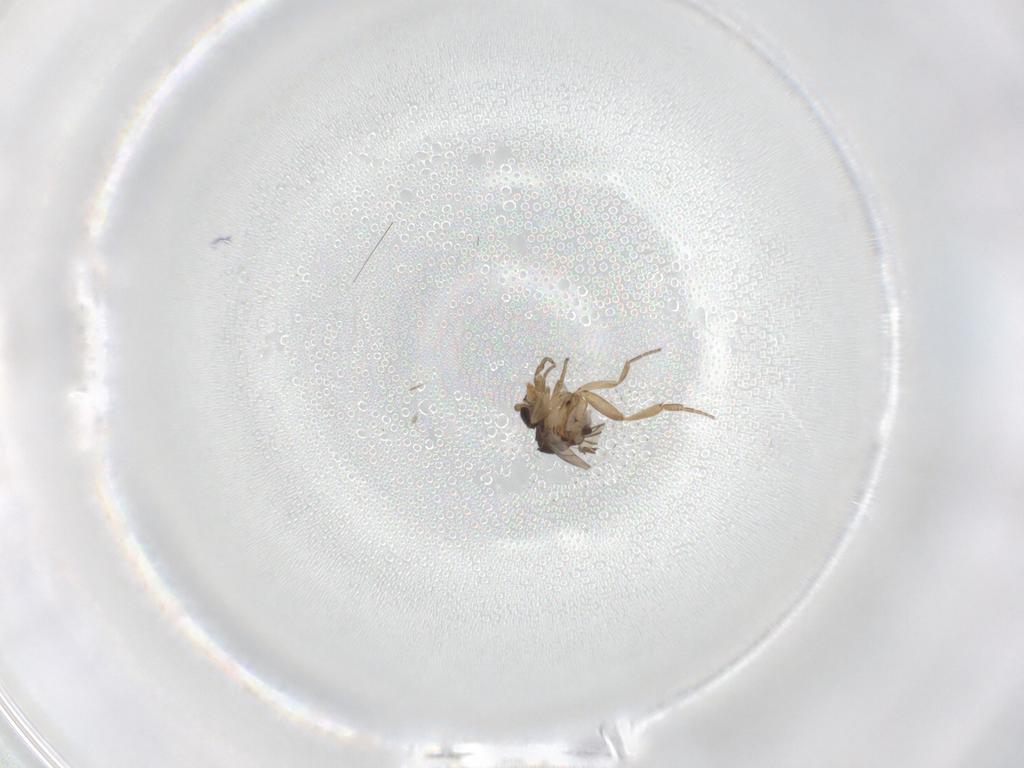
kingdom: Animalia
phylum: Arthropoda
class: Insecta
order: Diptera
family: Phoridae
